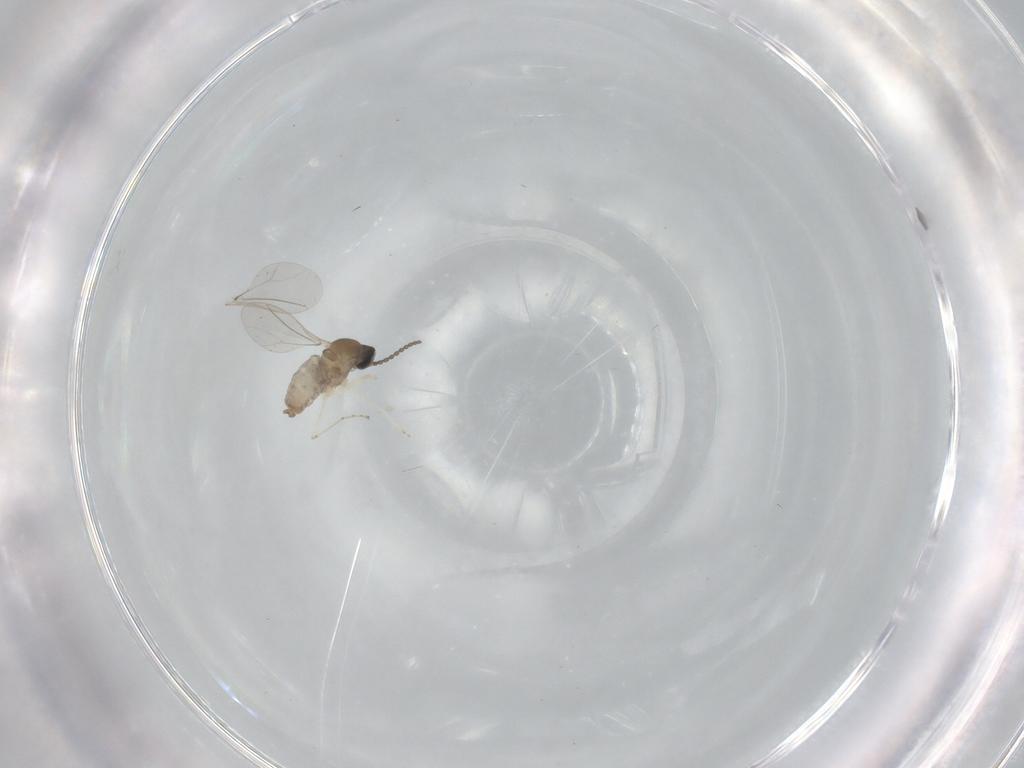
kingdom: Animalia
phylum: Arthropoda
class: Insecta
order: Diptera
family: Cecidomyiidae
